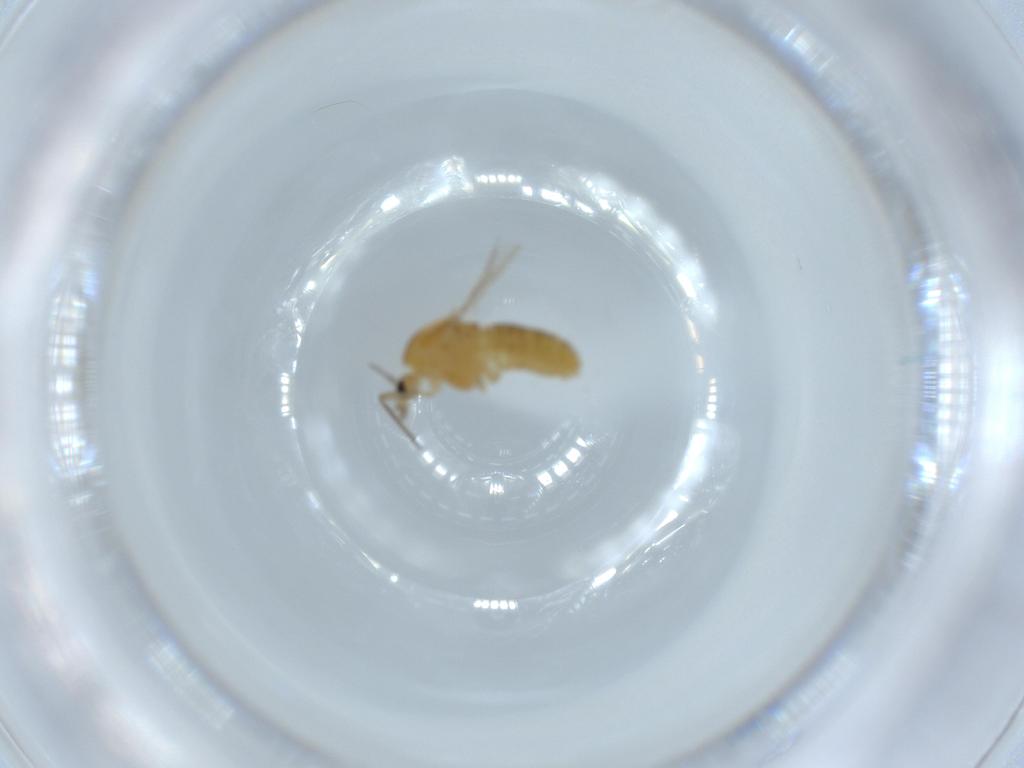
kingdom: Animalia
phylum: Arthropoda
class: Insecta
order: Diptera
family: Chironomidae
